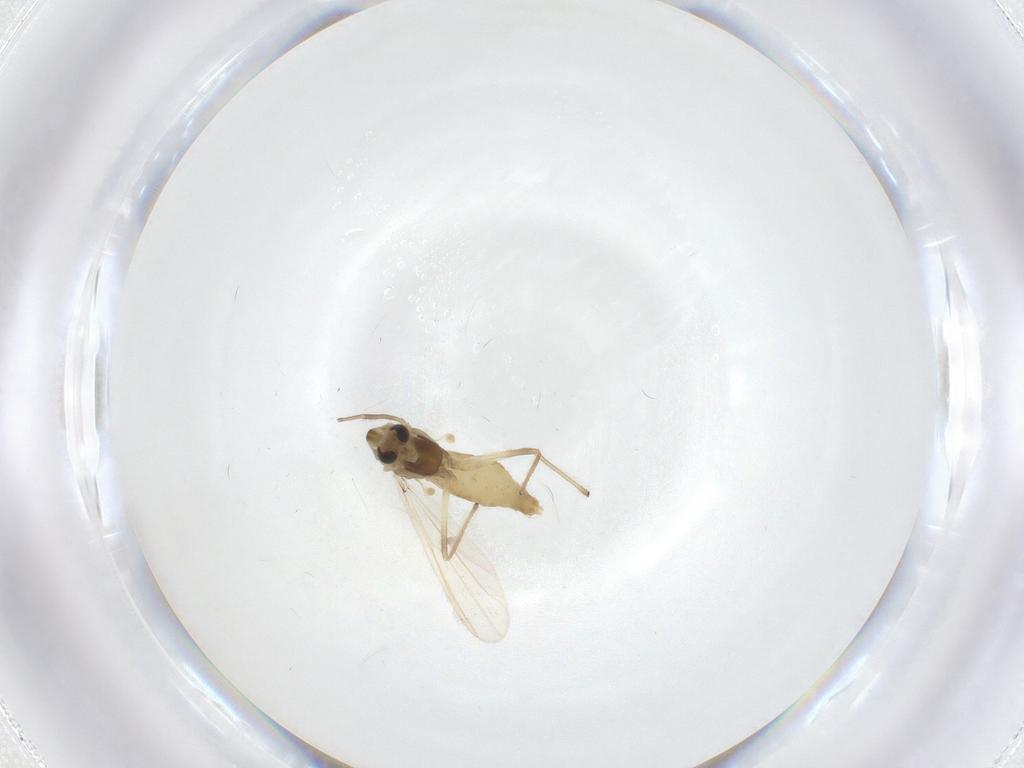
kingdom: Animalia
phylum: Arthropoda
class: Insecta
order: Diptera
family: Chironomidae
